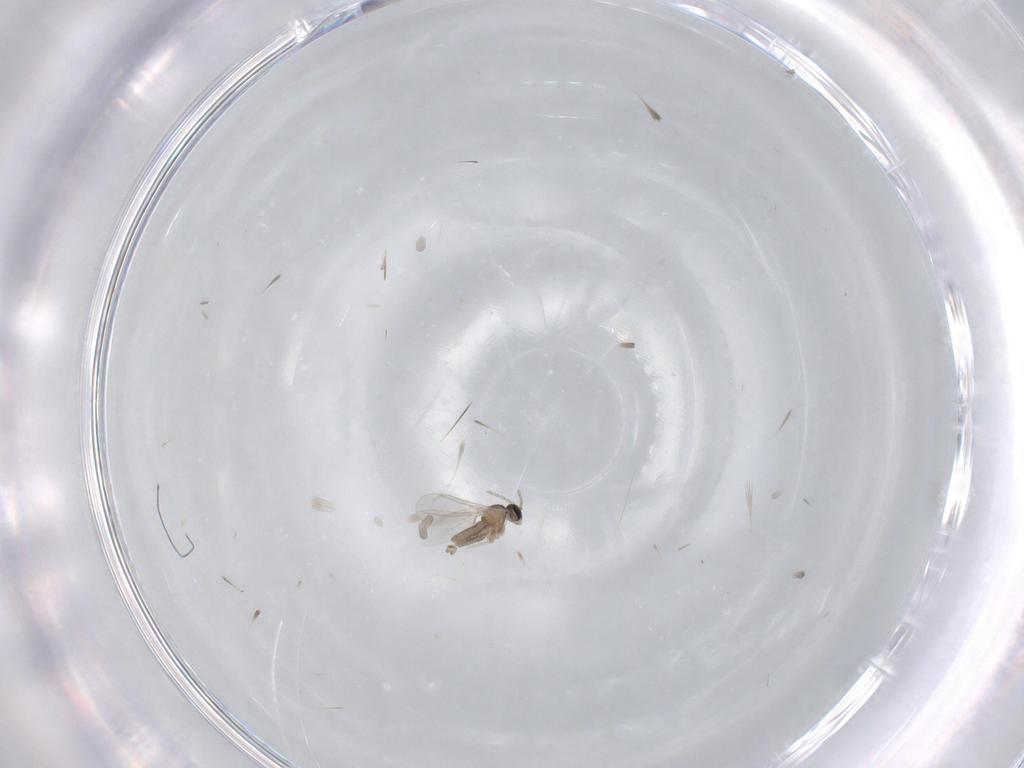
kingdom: Animalia
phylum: Arthropoda
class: Insecta
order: Diptera
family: Cecidomyiidae
